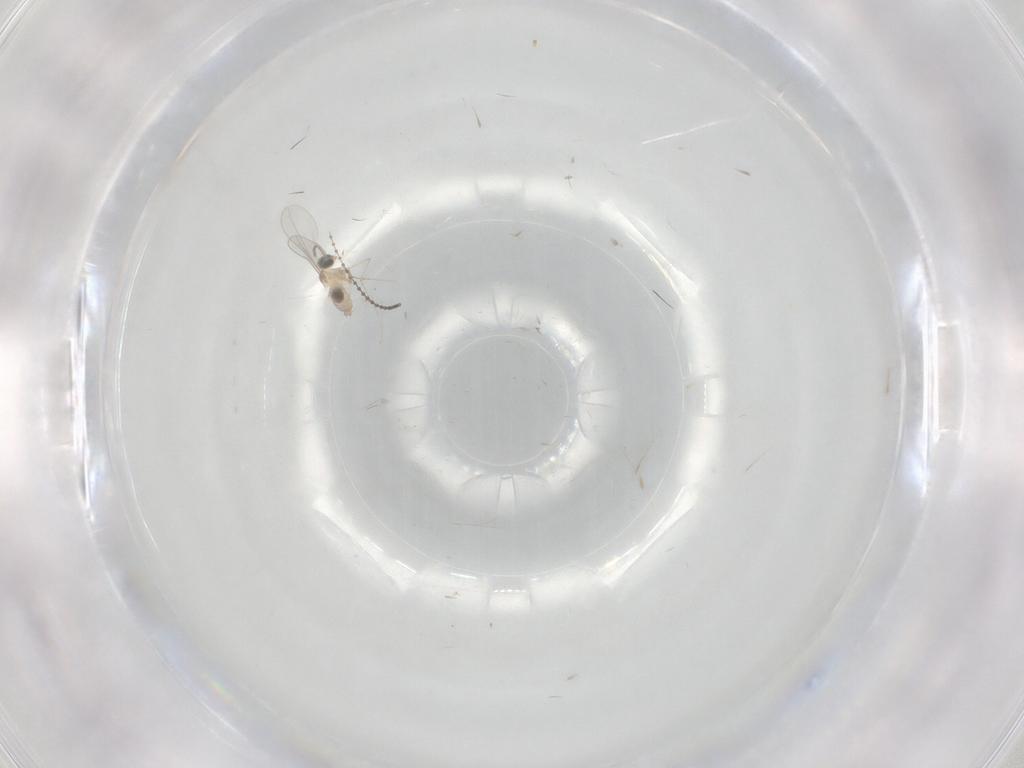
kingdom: Animalia
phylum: Arthropoda
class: Insecta
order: Diptera
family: Cecidomyiidae
